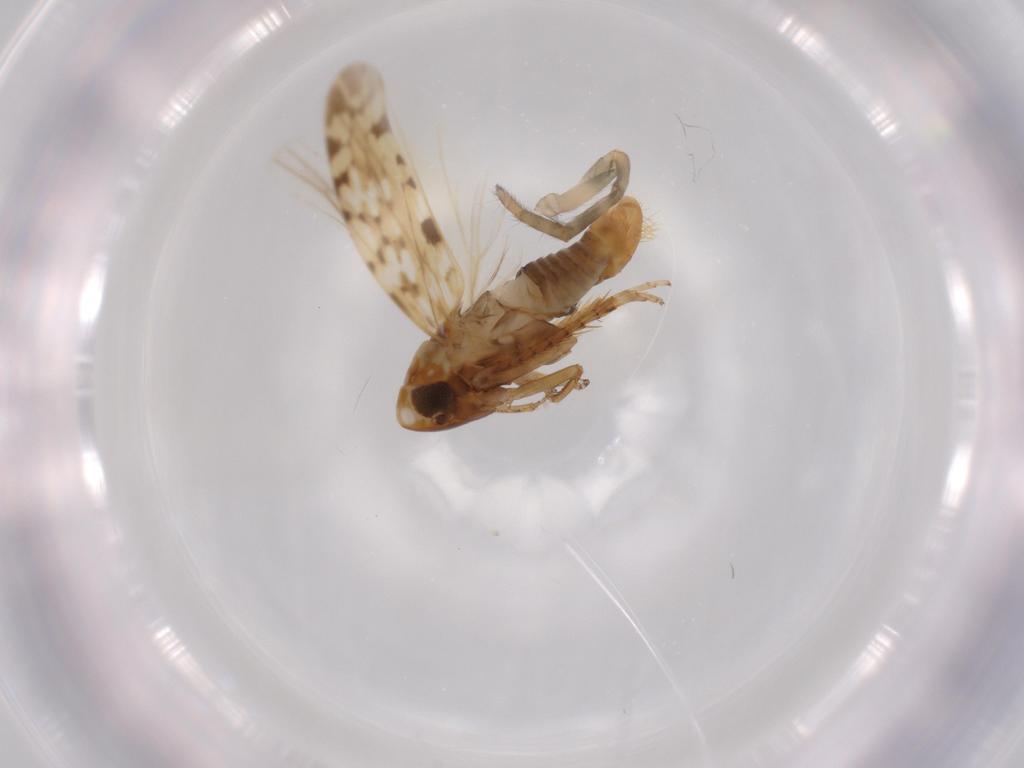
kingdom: Animalia
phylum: Arthropoda
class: Insecta
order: Hemiptera
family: Cicadellidae
